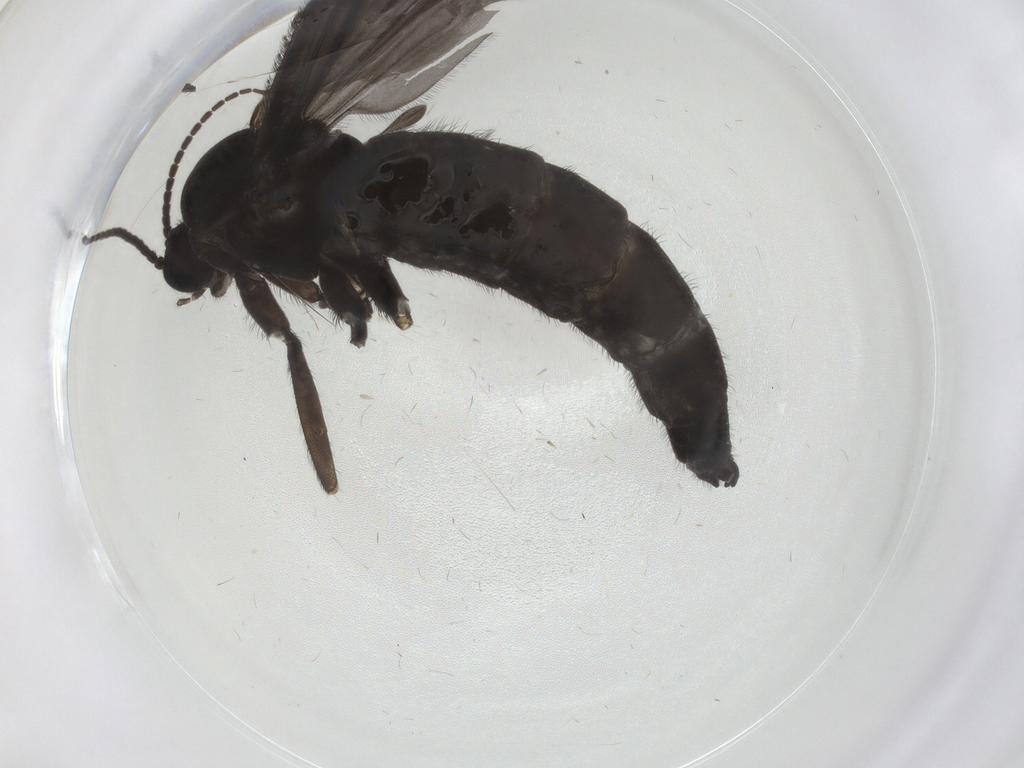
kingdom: Animalia
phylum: Arthropoda
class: Insecta
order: Diptera
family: Sciaridae
